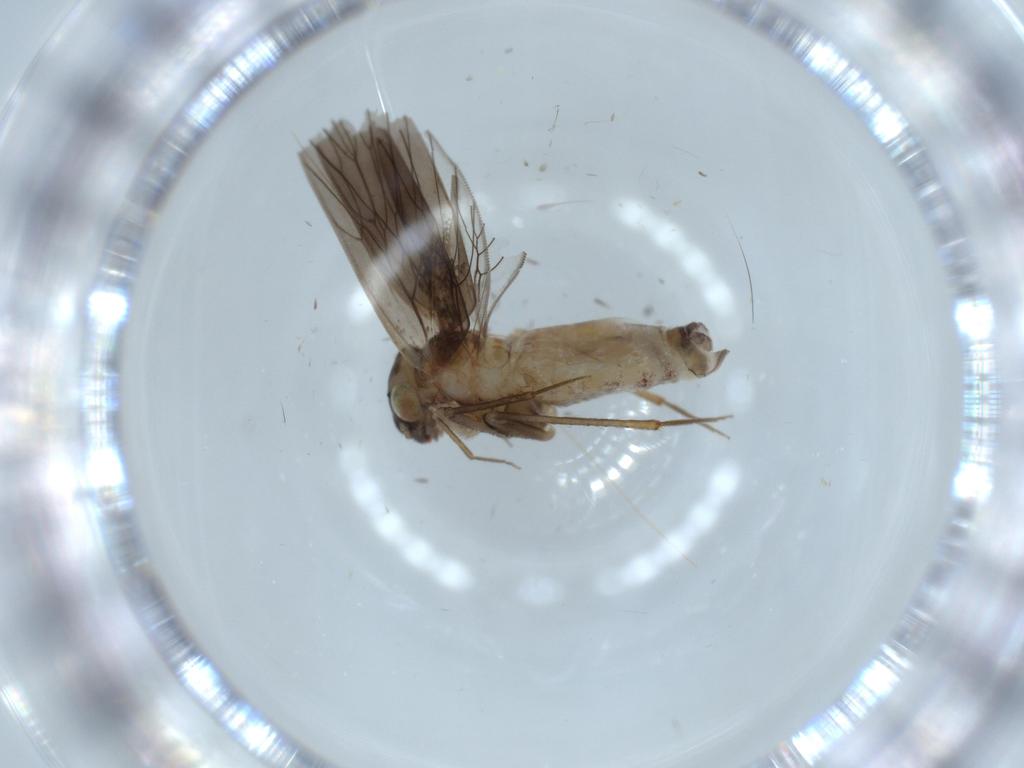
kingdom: Animalia
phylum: Arthropoda
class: Insecta
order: Psocodea
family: Lepidopsocidae
